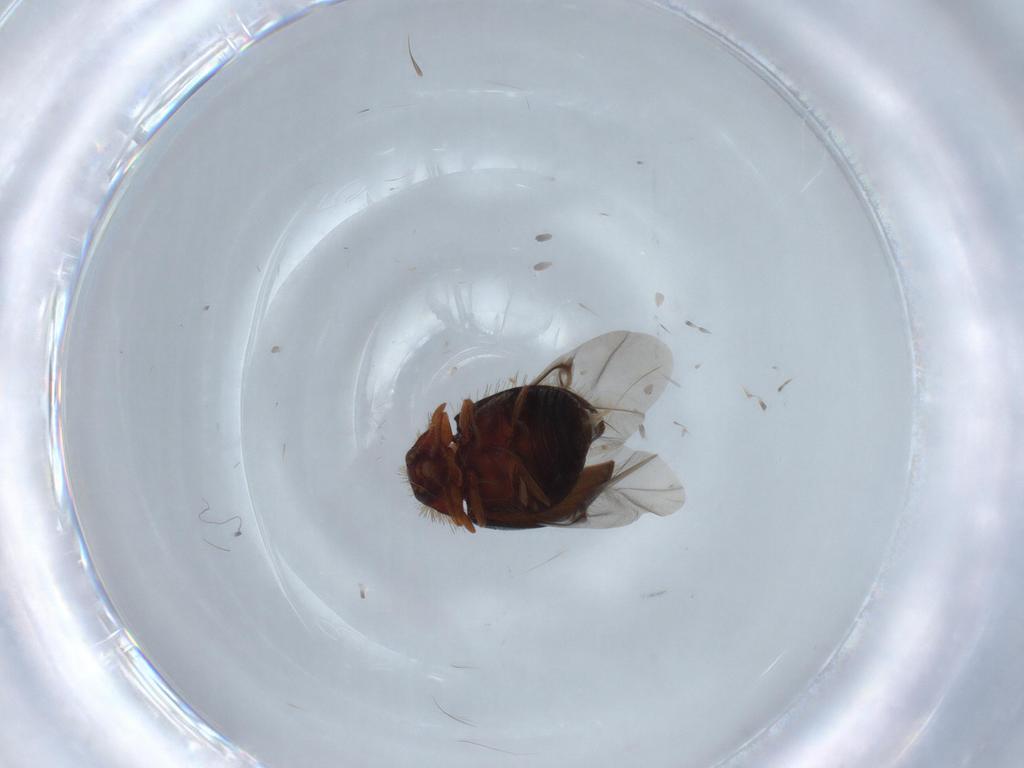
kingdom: Animalia
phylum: Arthropoda
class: Insecta
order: Coleoptera
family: Dermestidae
